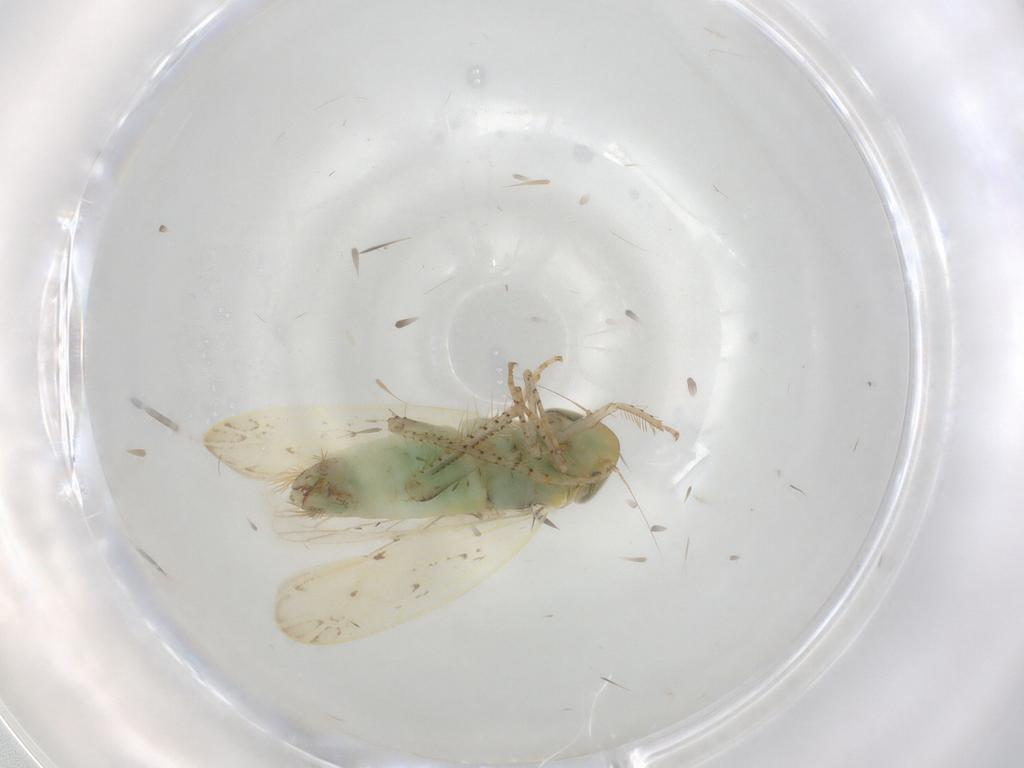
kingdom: Animalia
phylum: Arthropoda
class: Insecta
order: Hemiptera
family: Cicadellidae
